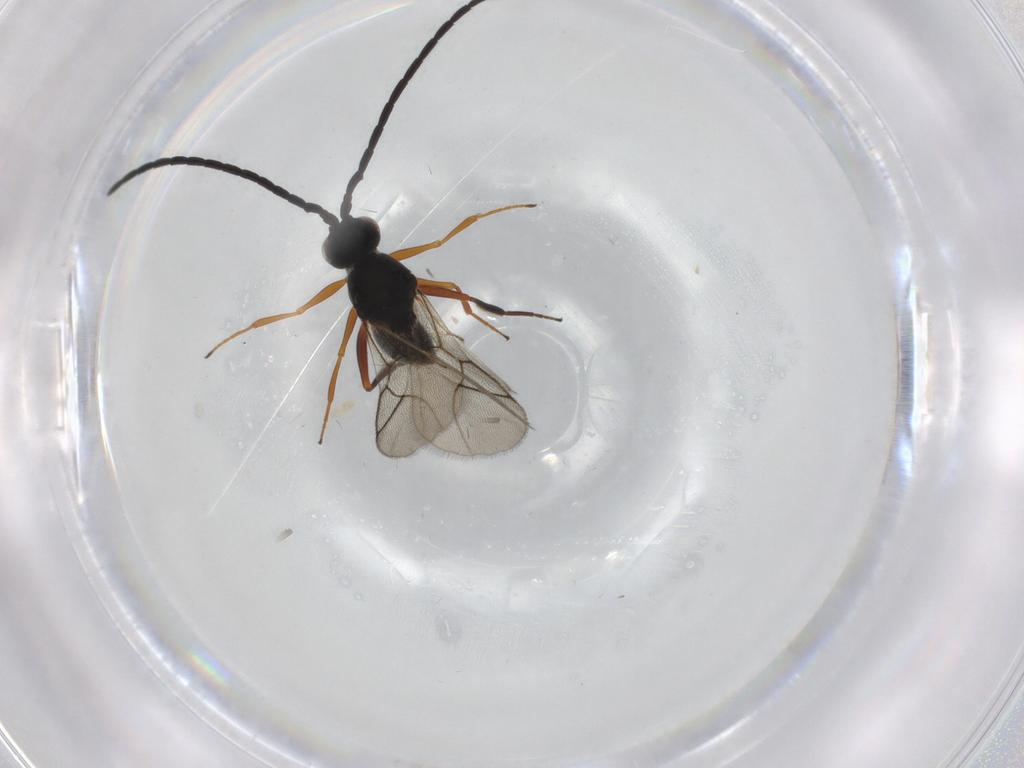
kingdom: Animalia
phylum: Arthropoda
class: Insecta
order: Hymenoptera
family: Figitidae
